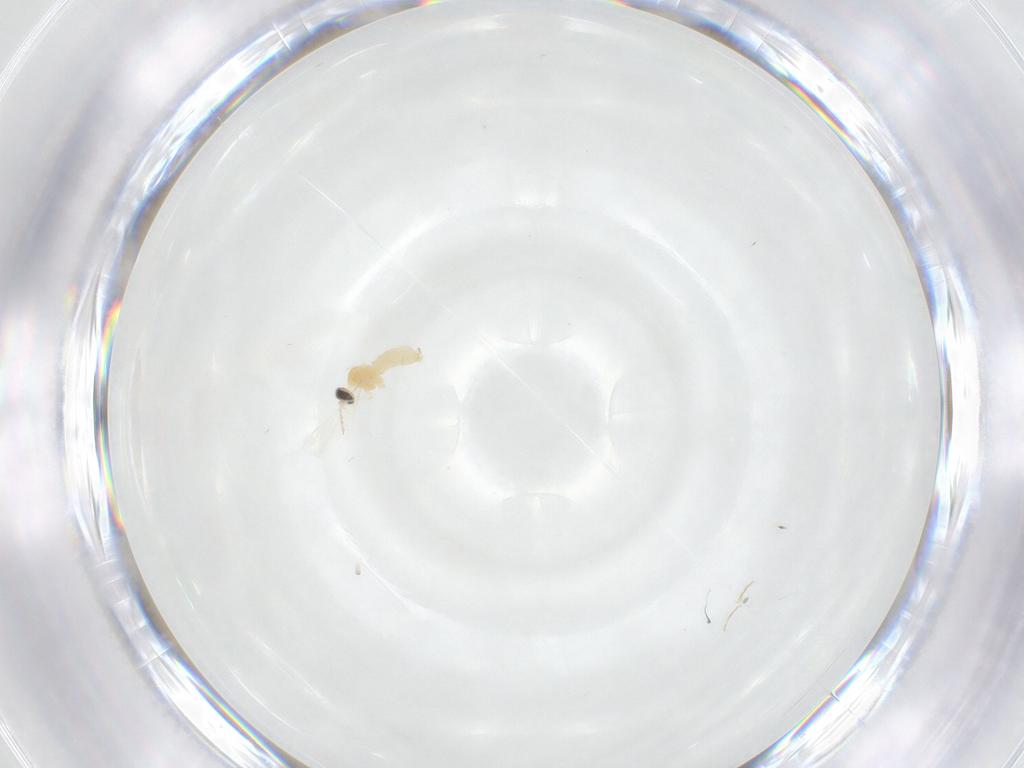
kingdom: Animalia
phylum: Arthropoda
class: Insecta
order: Diptera
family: Cecidomyiidae
